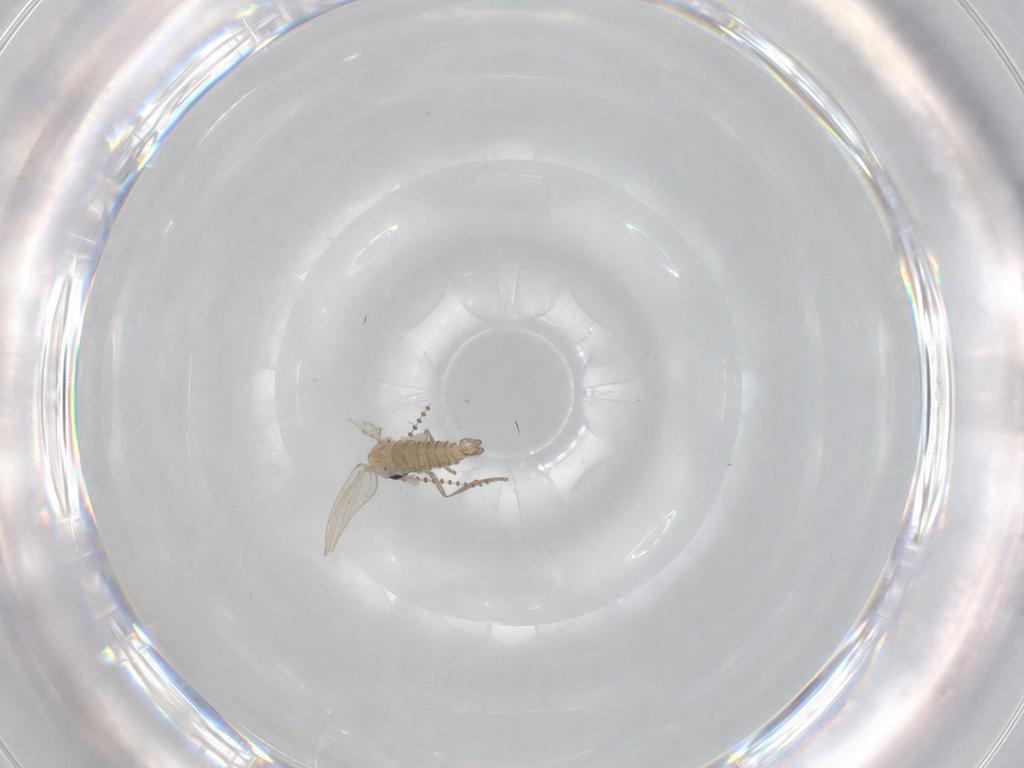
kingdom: Animalia
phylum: Arthropoda
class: Insecta
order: Diptera
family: Psychodidae
